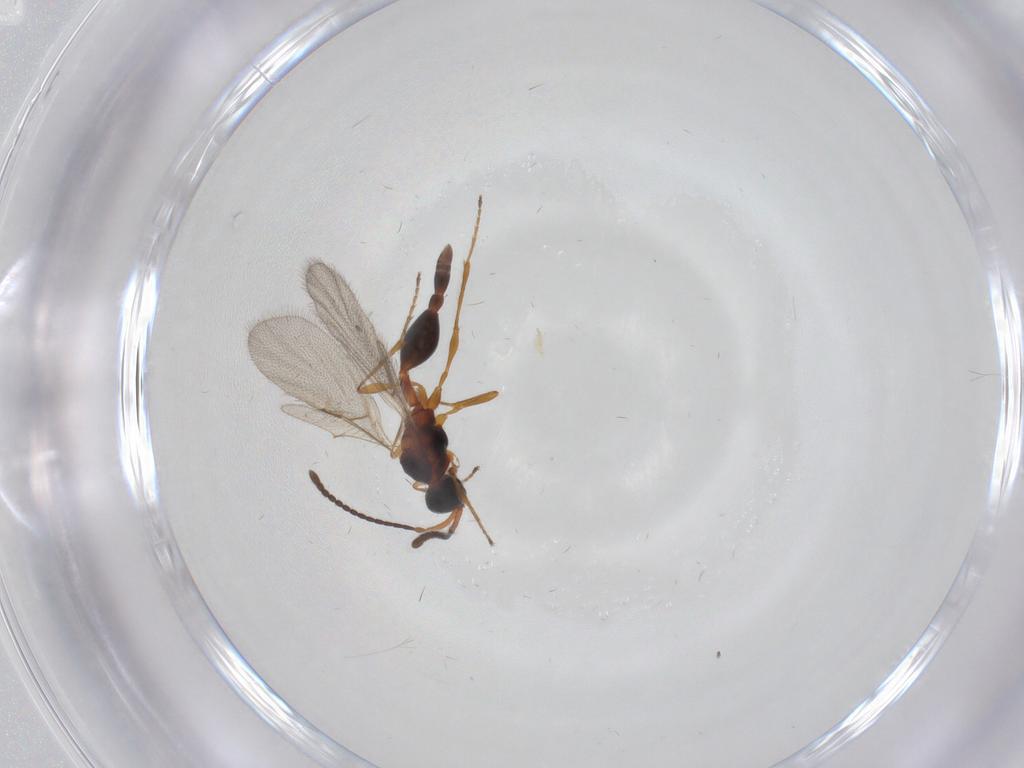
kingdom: Animalia
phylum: Arthropoda
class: Insecta
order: Hymenoptera
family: Diapriidae
